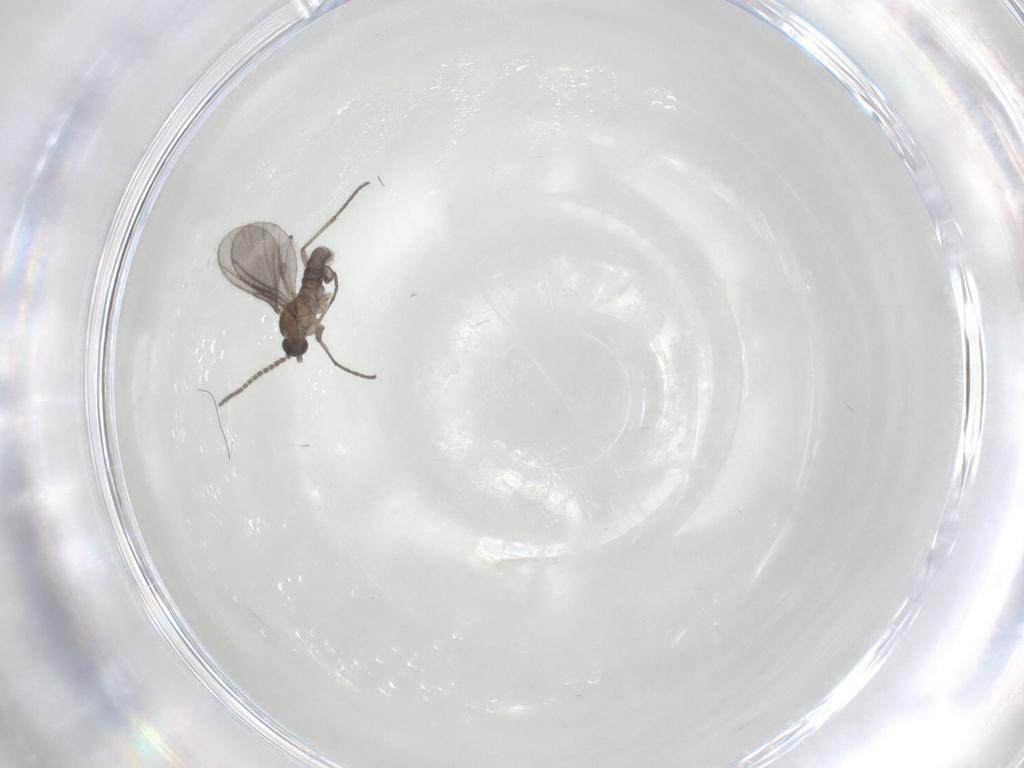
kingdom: Animalia
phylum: Arthropoda
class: Insecta
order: Diptera
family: Sciaridae
